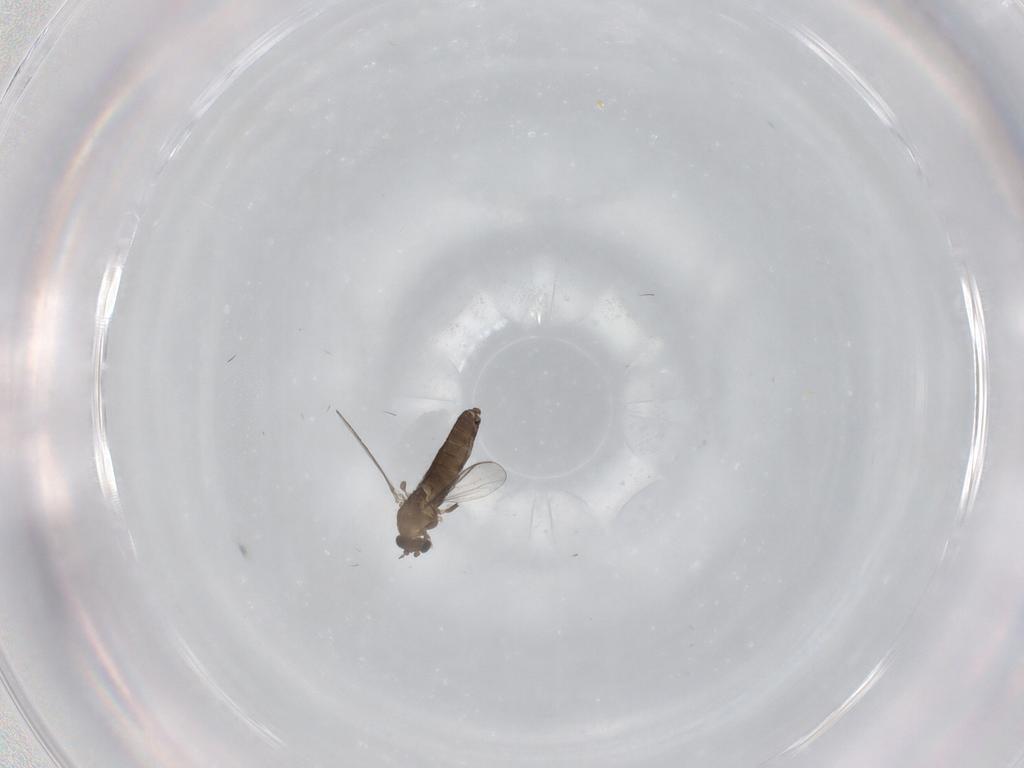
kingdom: Animalia
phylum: Arthropoda
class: Insecta
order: Diptera
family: Chironomidae
